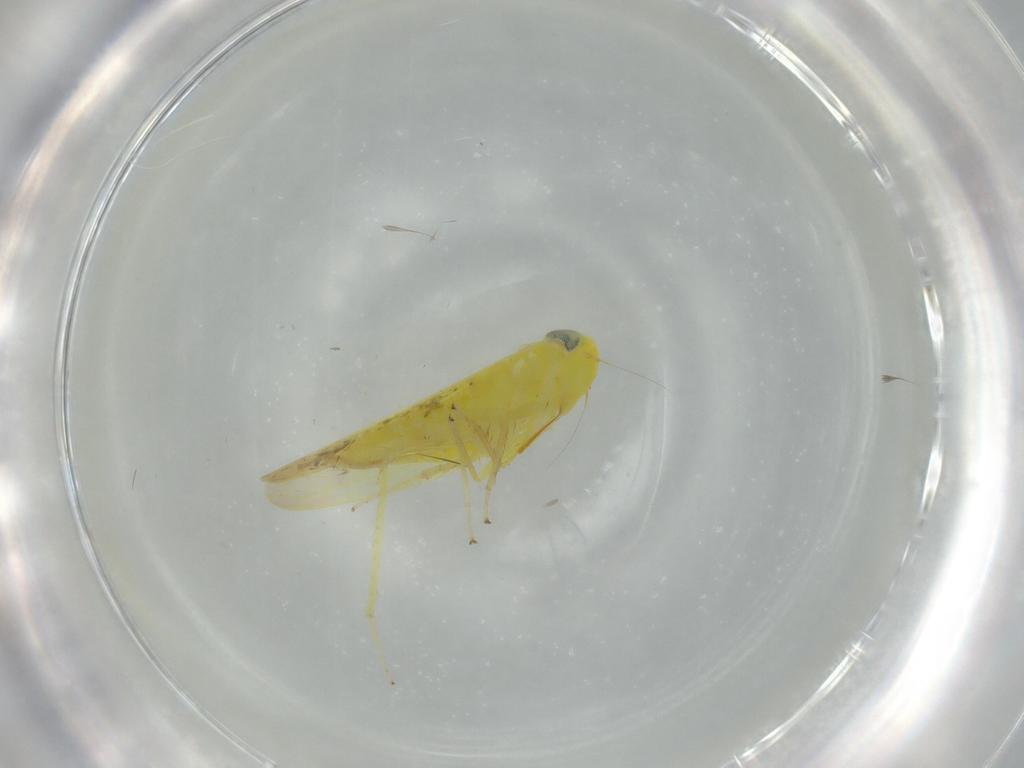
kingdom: Animalia
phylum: Arthropoda
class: Insecta
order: Hemiptera
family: Cicadellidae
